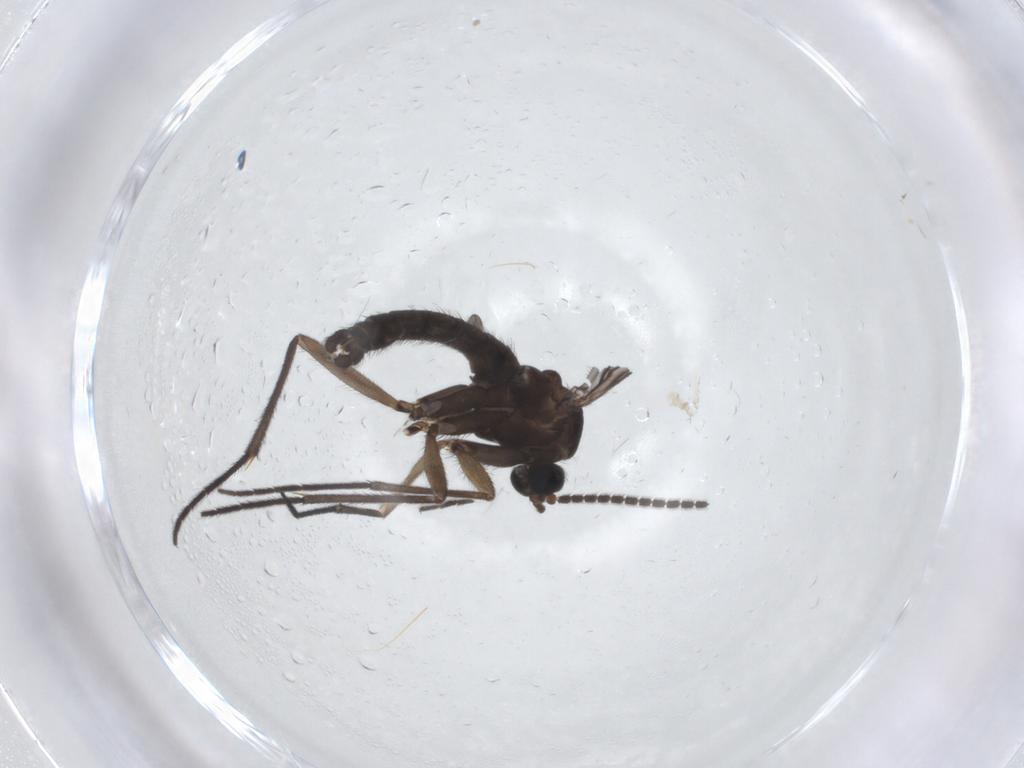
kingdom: Animalia
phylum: Arthropoda
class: Insecta
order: Diptera
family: Sciaridae
